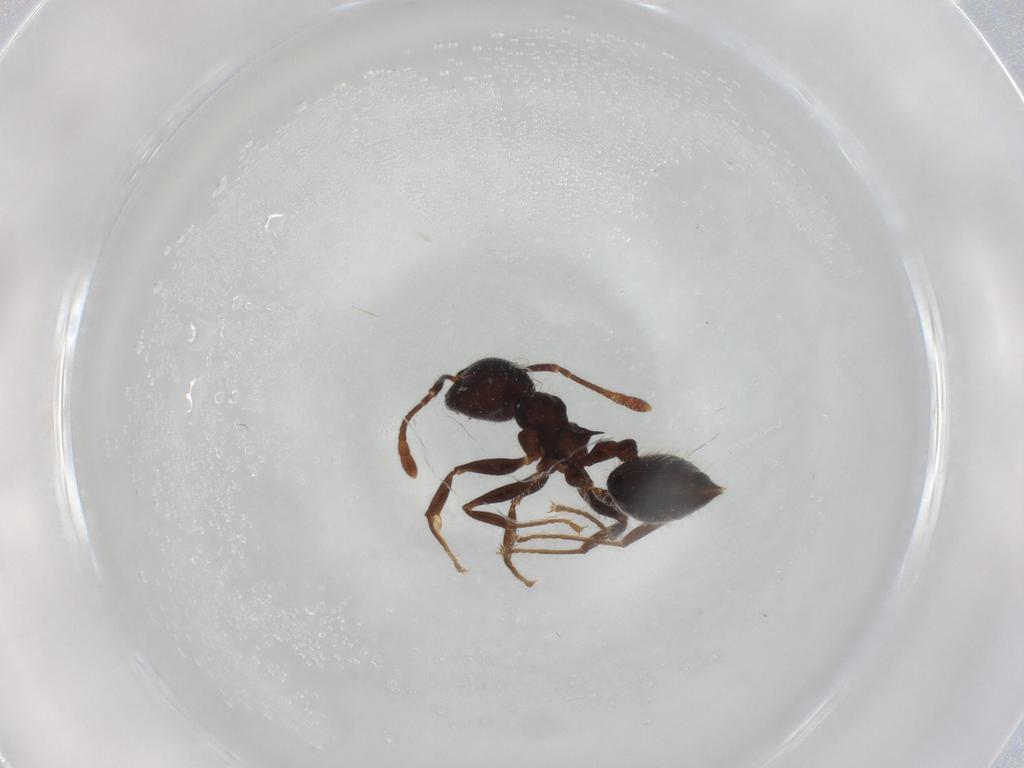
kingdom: Animalia
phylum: Arthropoda
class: Insecta
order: Hymenoptera
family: Formicidae
